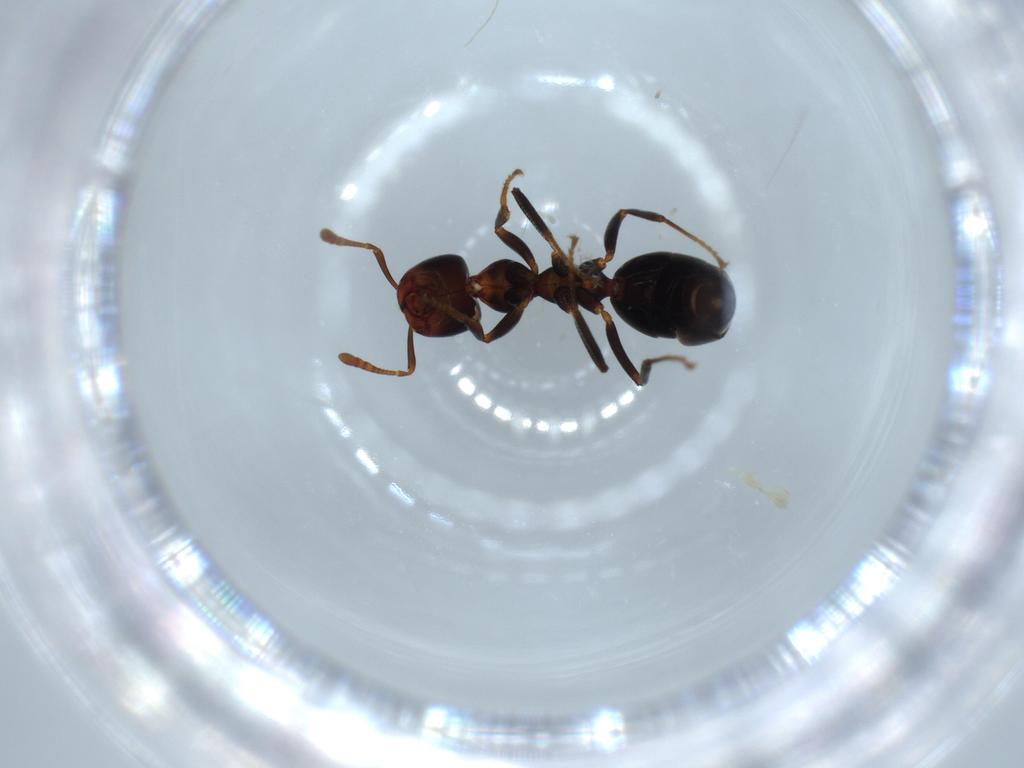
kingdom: Animalia
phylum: Arthropoda
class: Insecta
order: Hymenoptera
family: Formicidae
